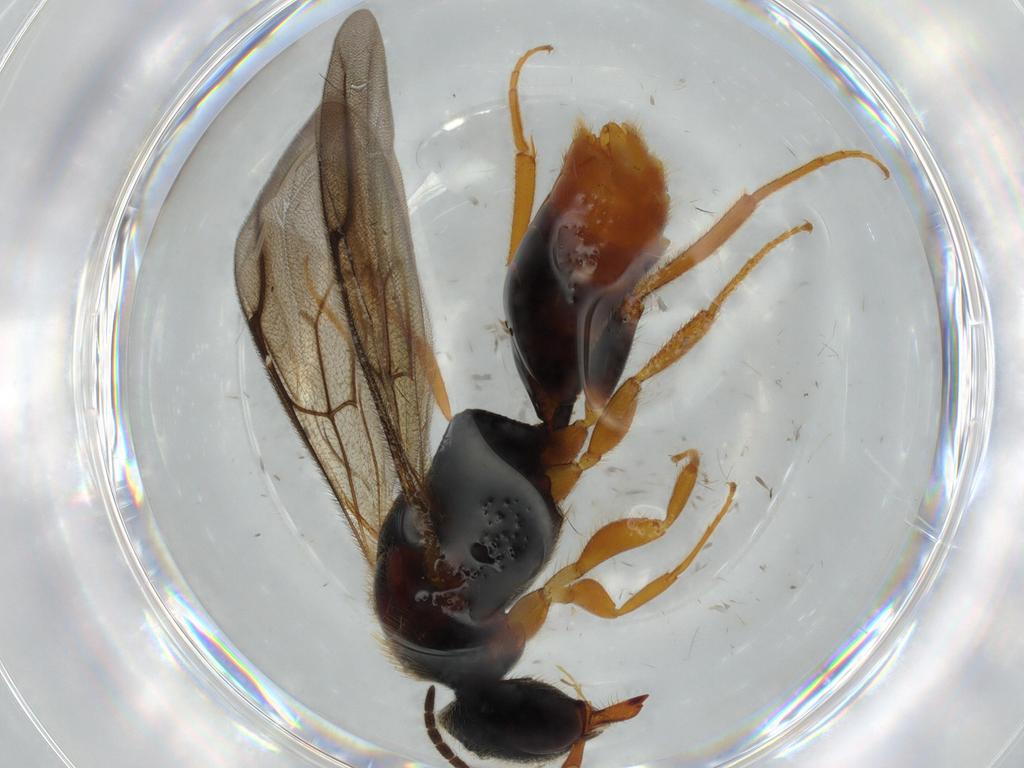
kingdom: Animalia
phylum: Arthropoda
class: Insecta
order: Hymenoptera
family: Bethylidae
